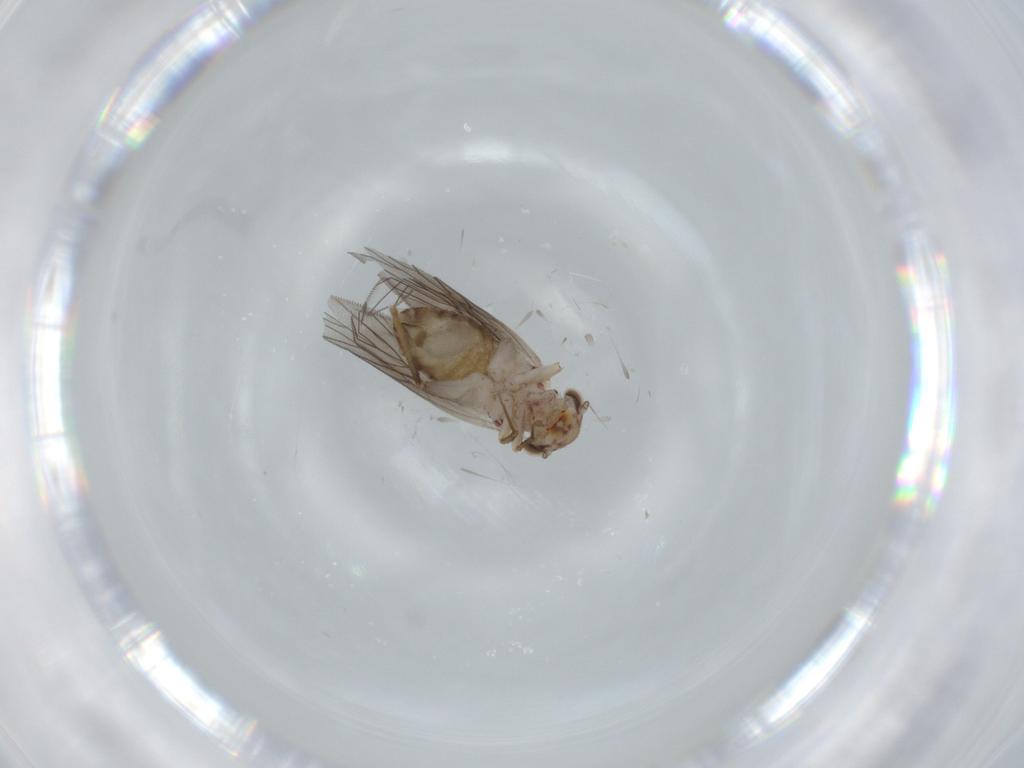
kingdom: Animalia
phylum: Arthropoda
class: Insecta
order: Psocodea
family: Lepidopsocidae
